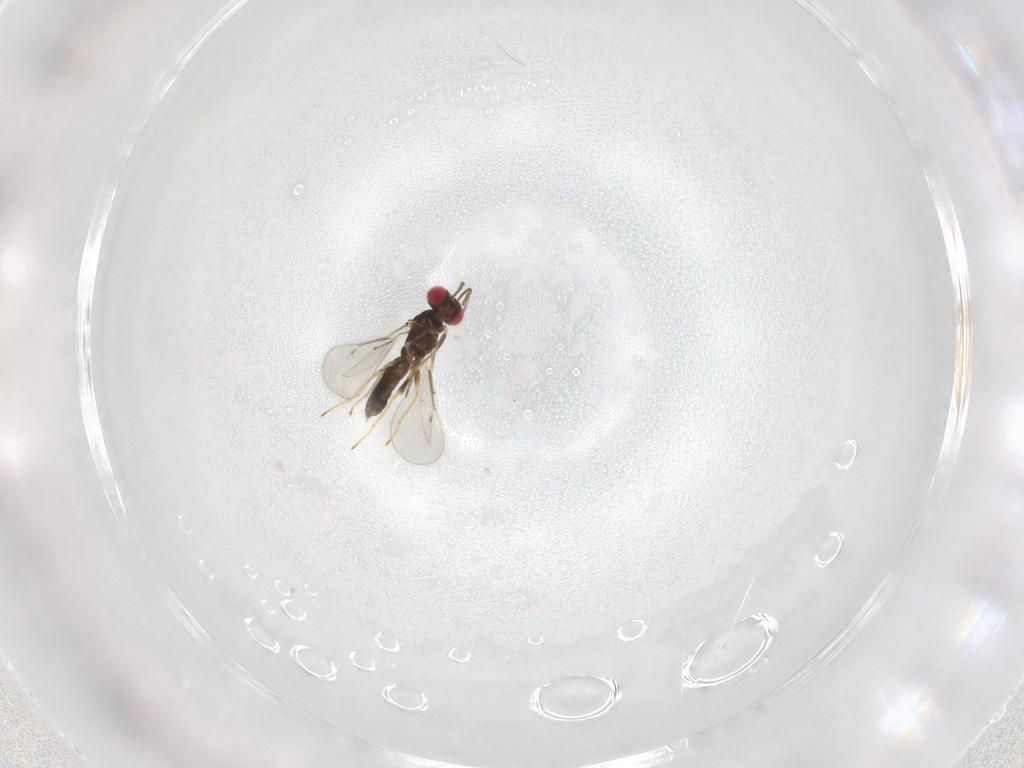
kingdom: Animalia
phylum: Arthropoda
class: Insecta
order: Hymenoptera
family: Eulophidae
